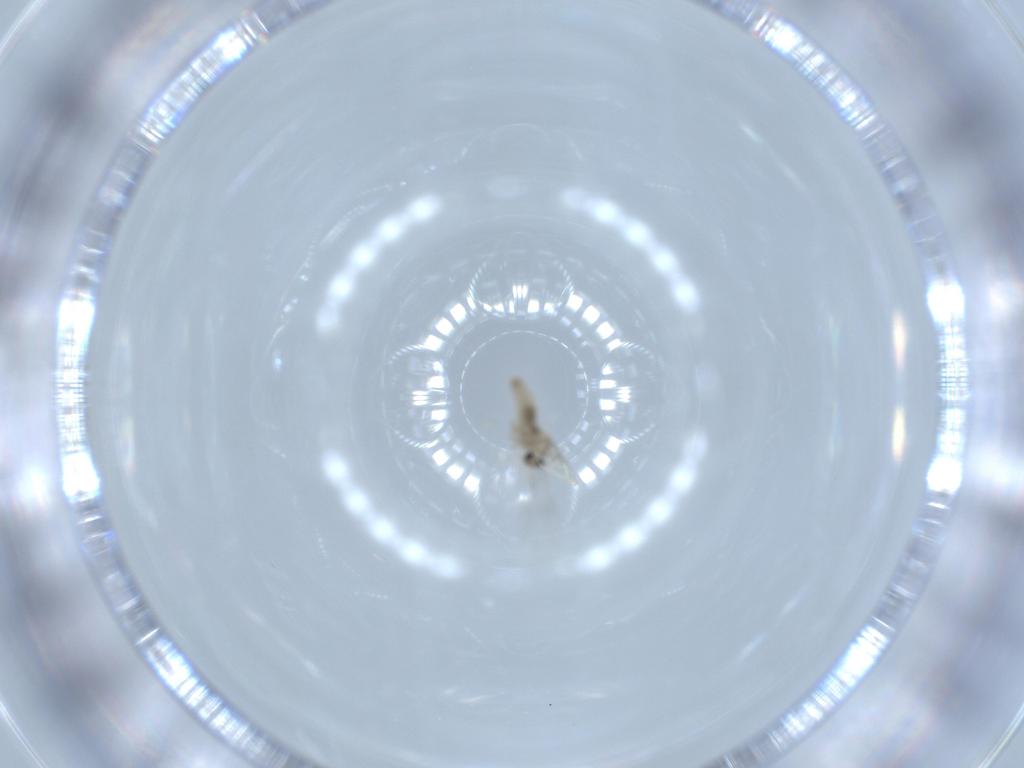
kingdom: Animalia
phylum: Arthropoda
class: Insecta
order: Diptera
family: Cecidomyiidae
